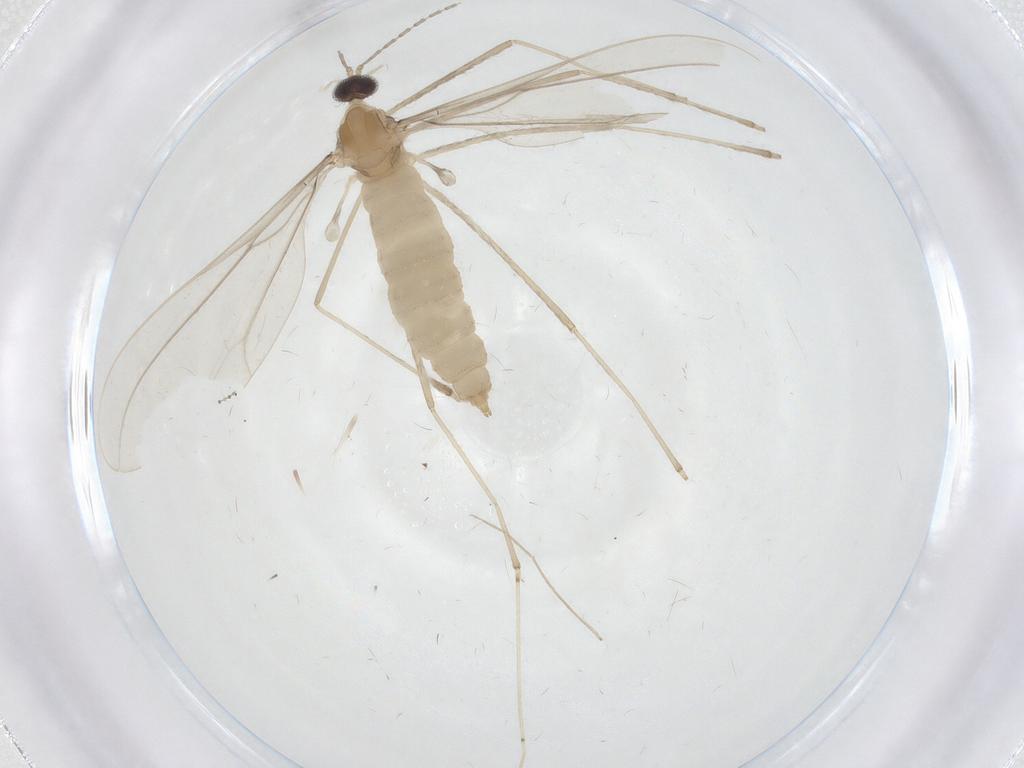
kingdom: Animalia
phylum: Arthropoda
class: Insecta
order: Diptera
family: Cecidomyiidae
